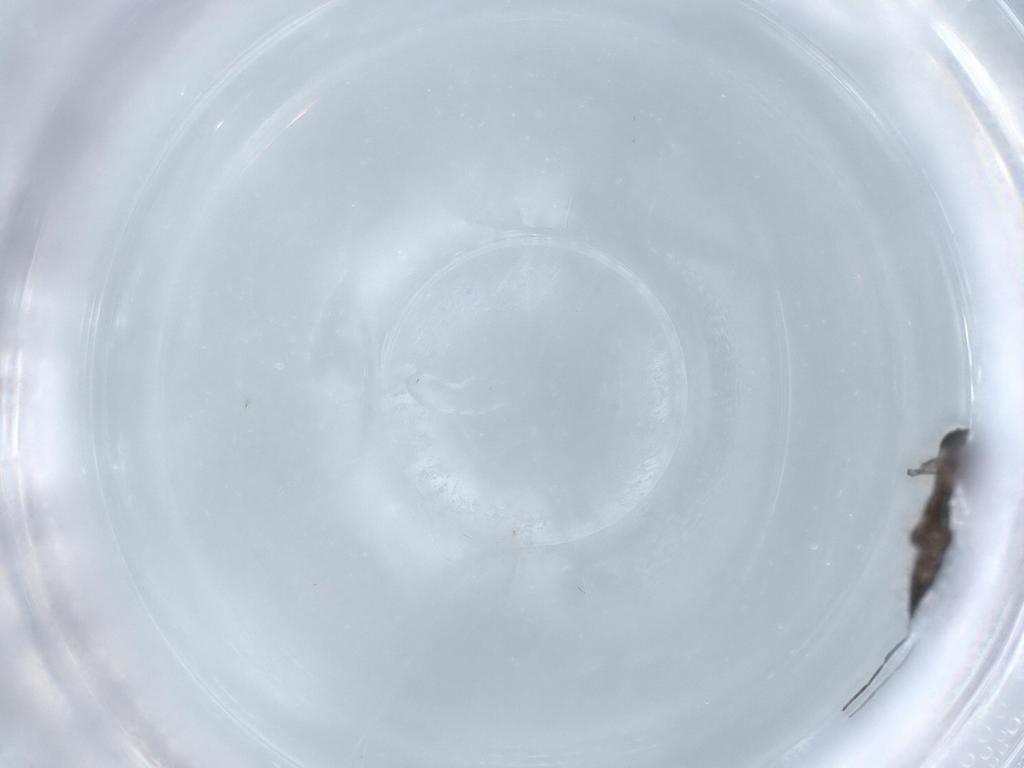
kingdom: Animalia
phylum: Arthropoda
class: Insecta
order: Diptera
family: Sciaridae
